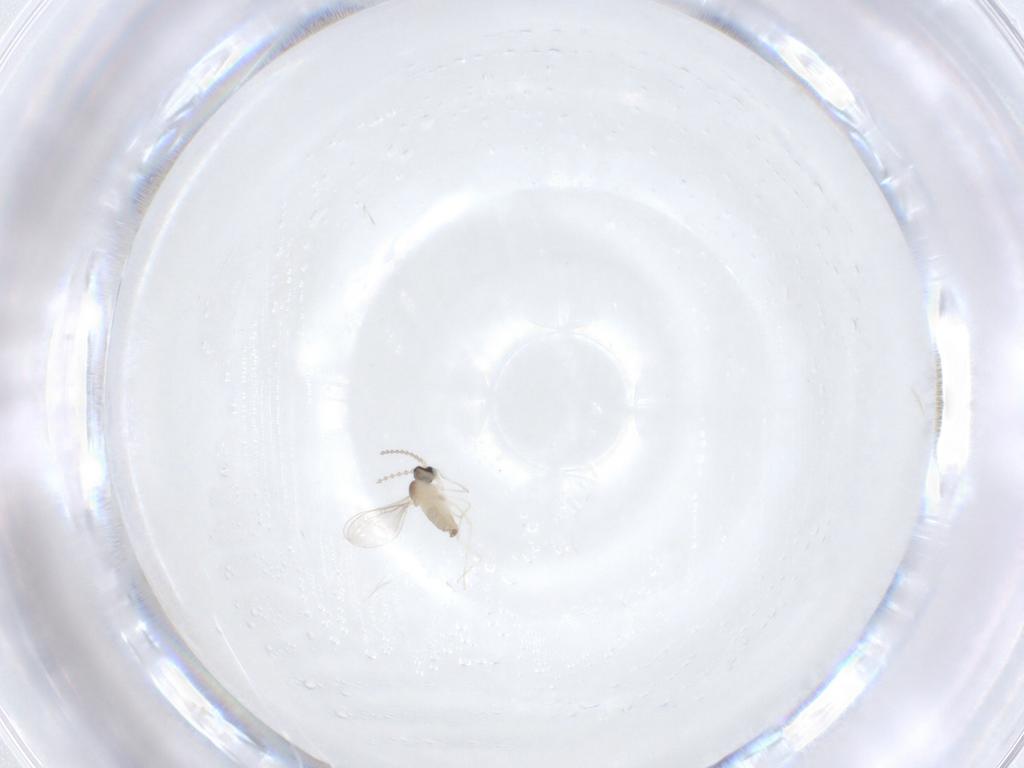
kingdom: Animalia
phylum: Arthropoda
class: Insecta
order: Diptera
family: Cecidomyiidae
